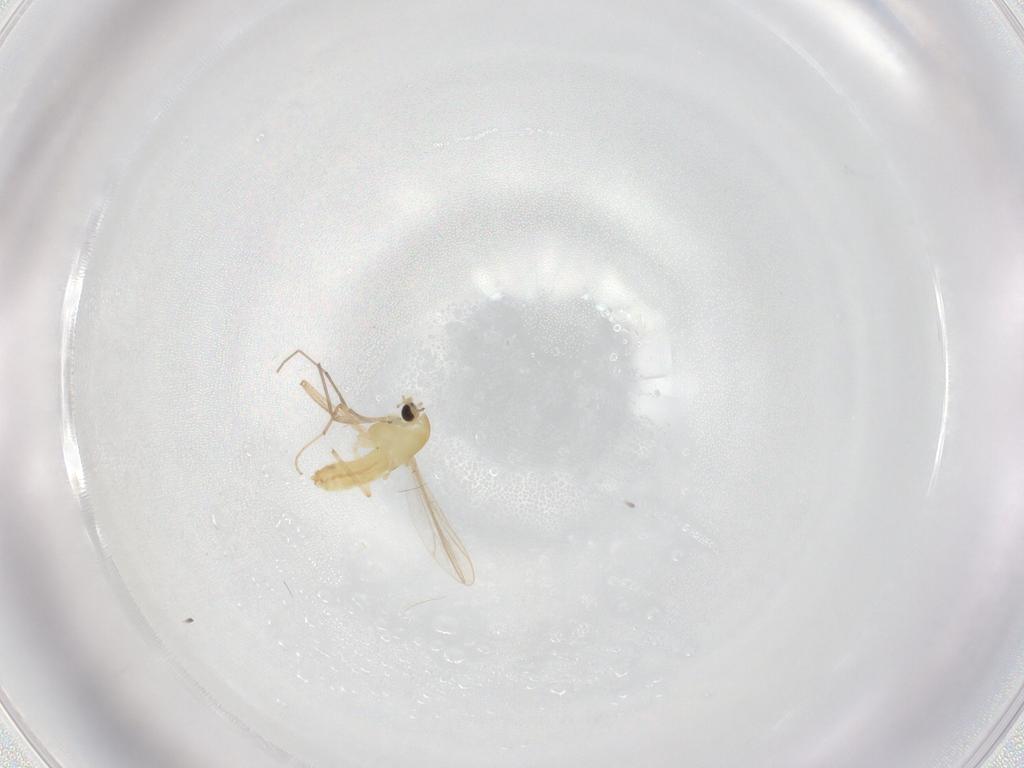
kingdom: Animalia
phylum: Arthropoda
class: Insecta
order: Diptera
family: Chironomidae
